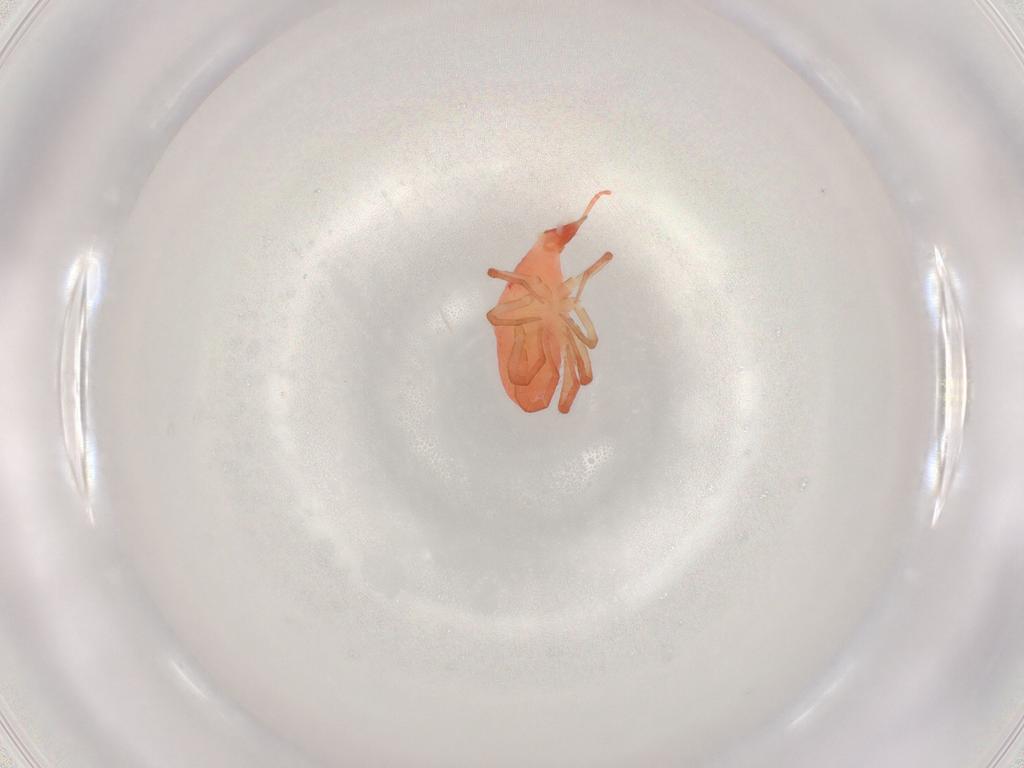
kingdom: Animalia
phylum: Arthropoda
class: Arachnida
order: Trombidiformes
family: Bdellidae
